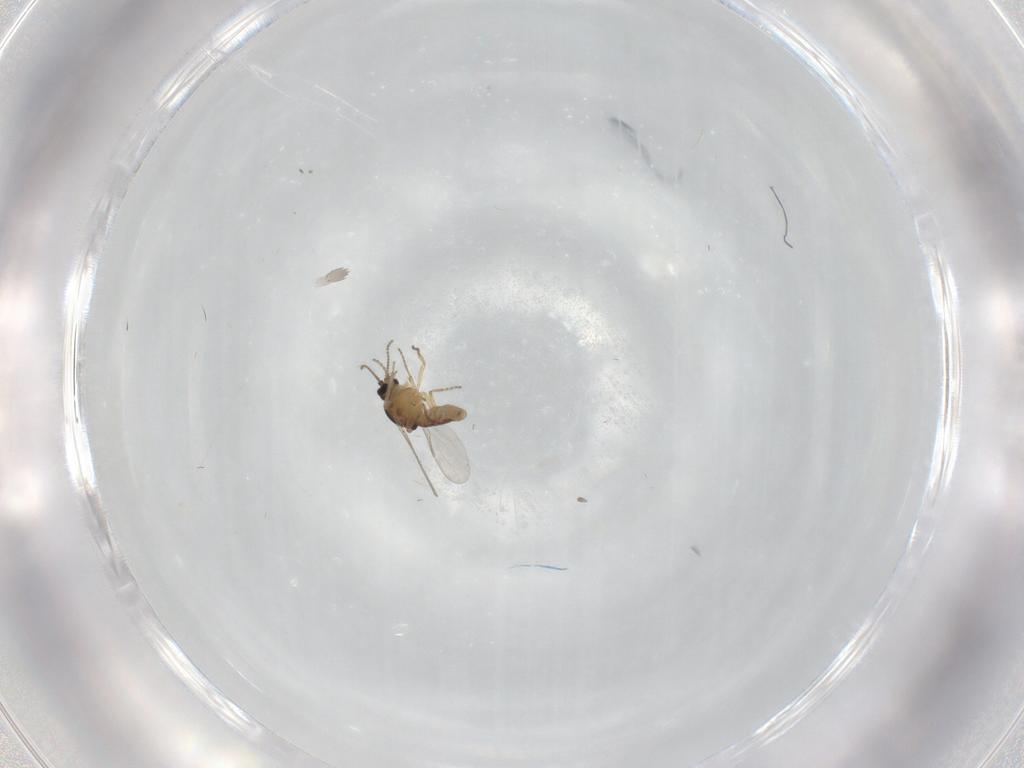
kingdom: Animalia
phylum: Arthropoda
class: Insecta
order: Diptera
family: Ceratopogonidae
